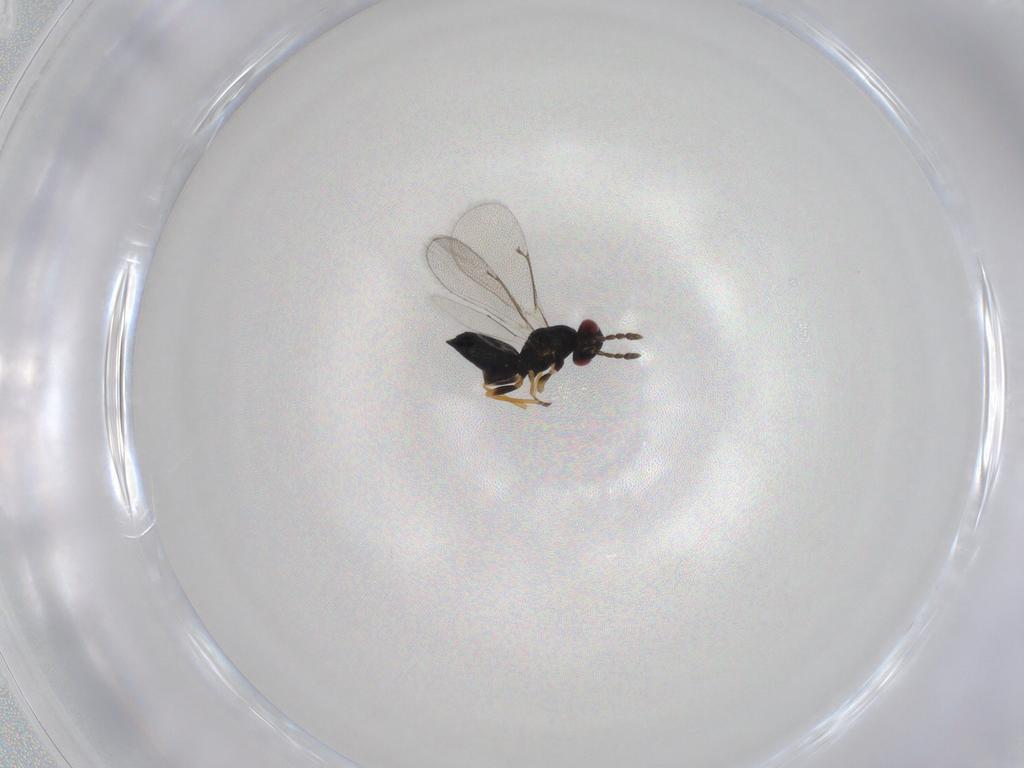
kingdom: Animalia
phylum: Arthropoda
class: Insecta
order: Hymenoptera
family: Eulophidae
